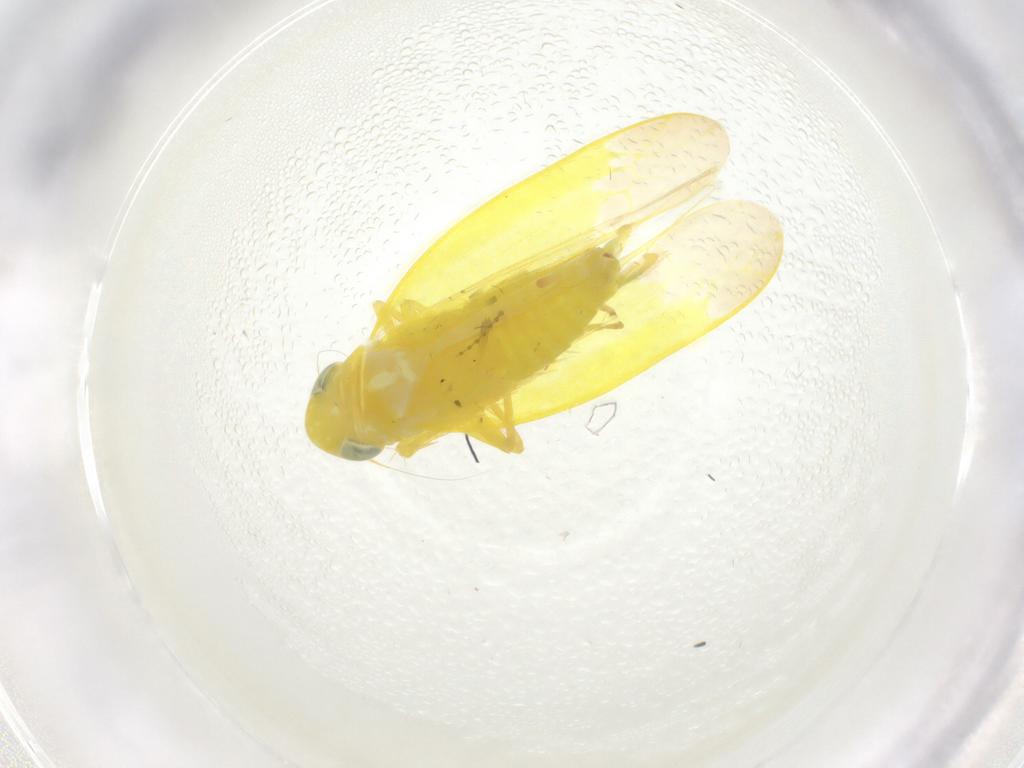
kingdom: Animalia
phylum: Arthropoda
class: Insecta
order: Hemiptera
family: Cicadellidae
